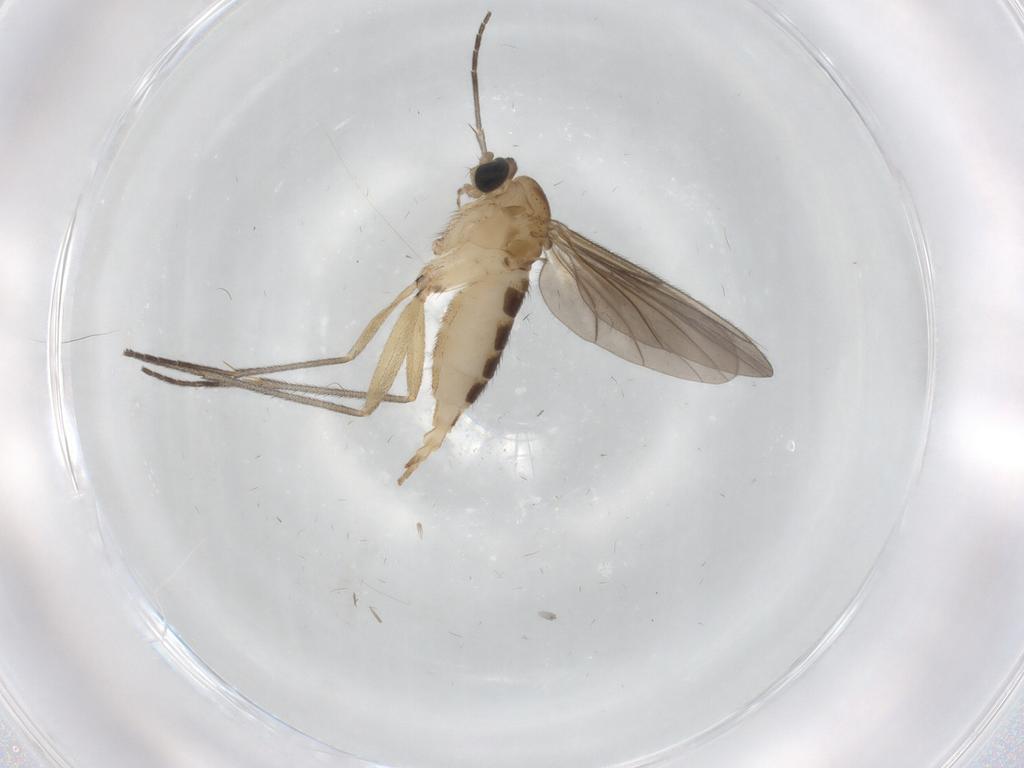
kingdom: Animalia
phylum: Arthropoda
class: Insecta
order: Diptera
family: Sciaridae
